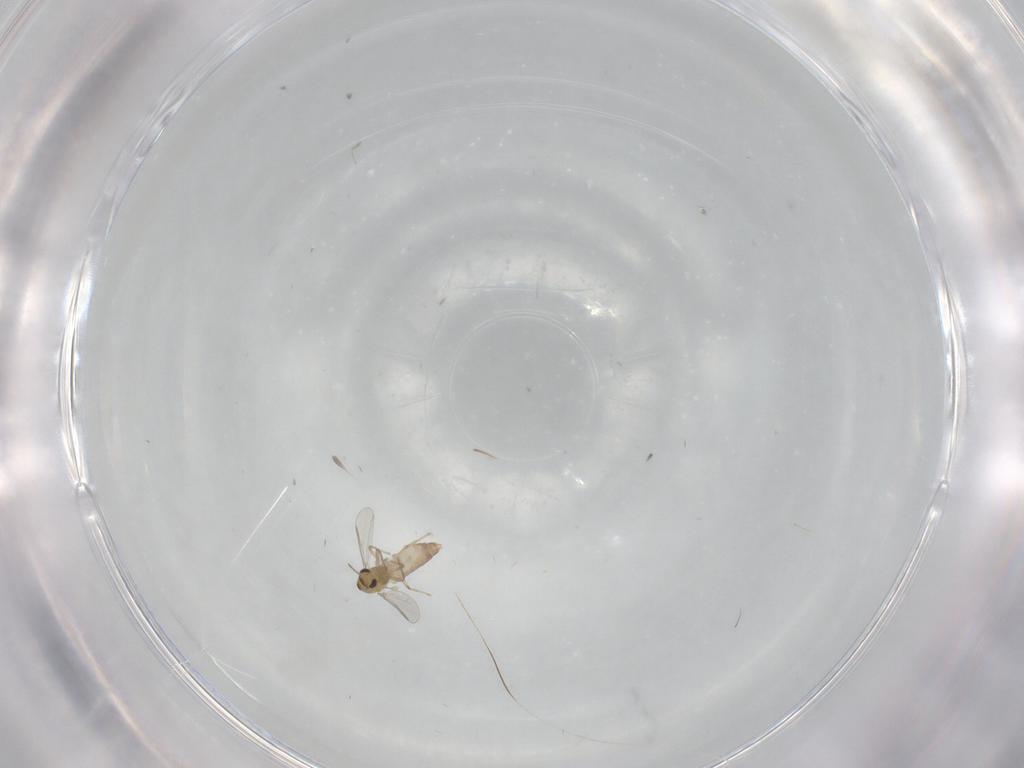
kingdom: Animalia
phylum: Arthropoda
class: Insecta
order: Diptera
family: Chironomidae
